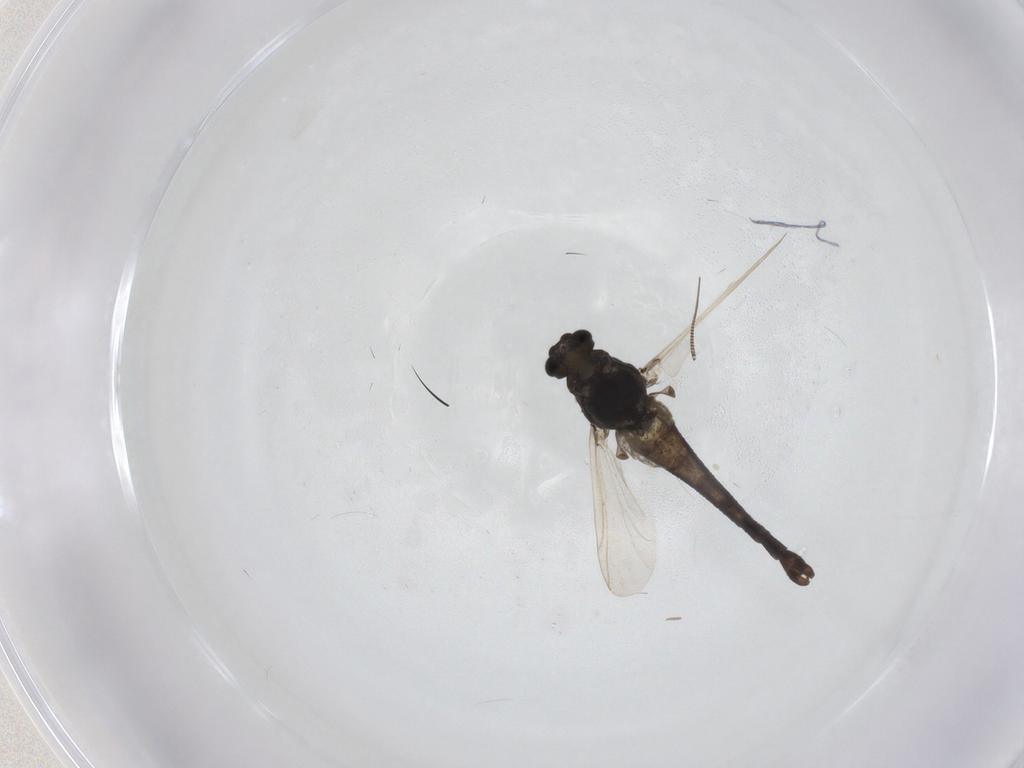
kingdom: Animalia
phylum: Arthropoda
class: Insecta
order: Diptera
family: Chironomidae
